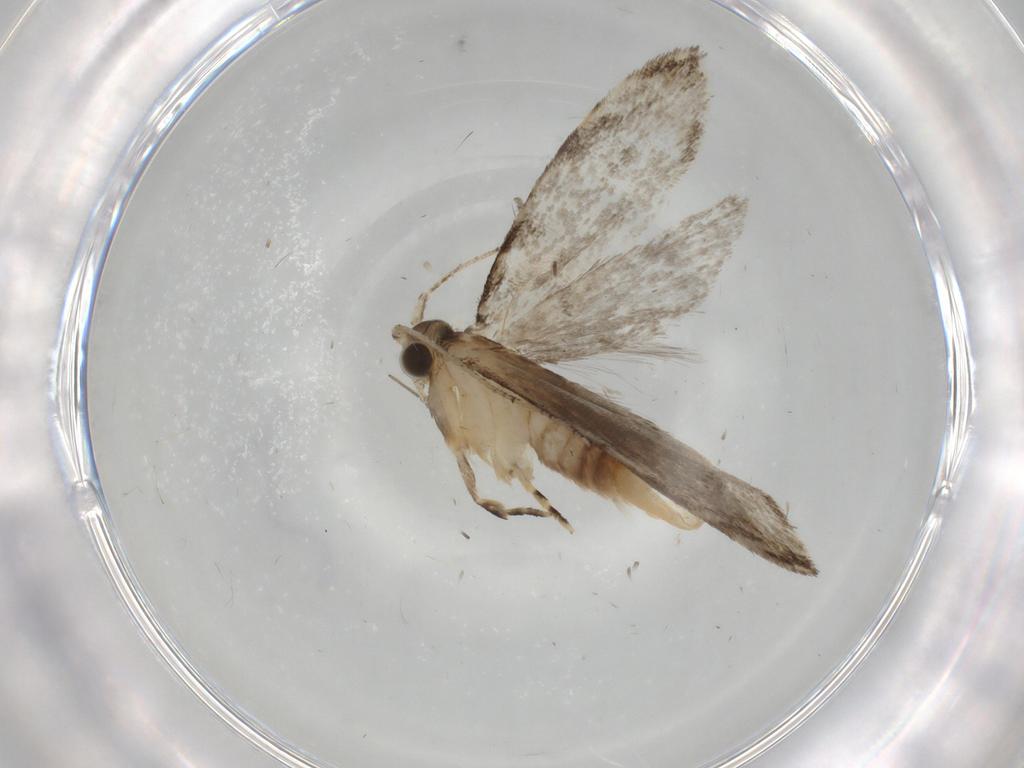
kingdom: Animalia
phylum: Arthropoda
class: Insecta
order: Lepidoptera
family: Tineidae
